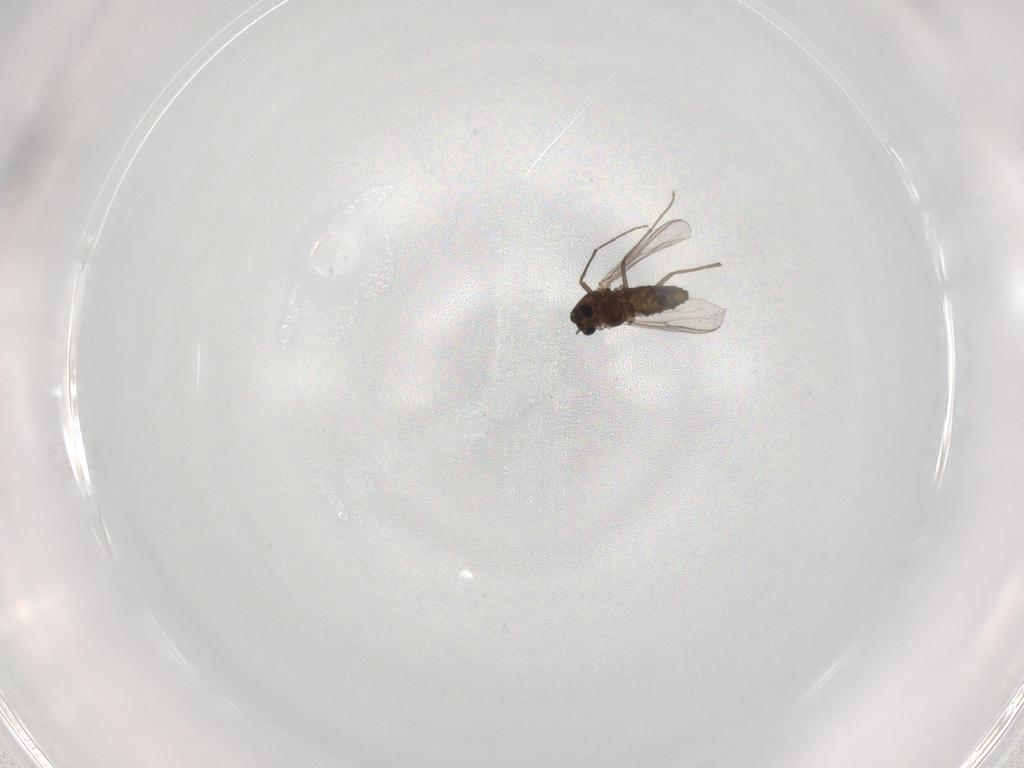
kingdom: Animalia
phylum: Arthropoda
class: Insecta
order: Diptera
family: Chironomidae
